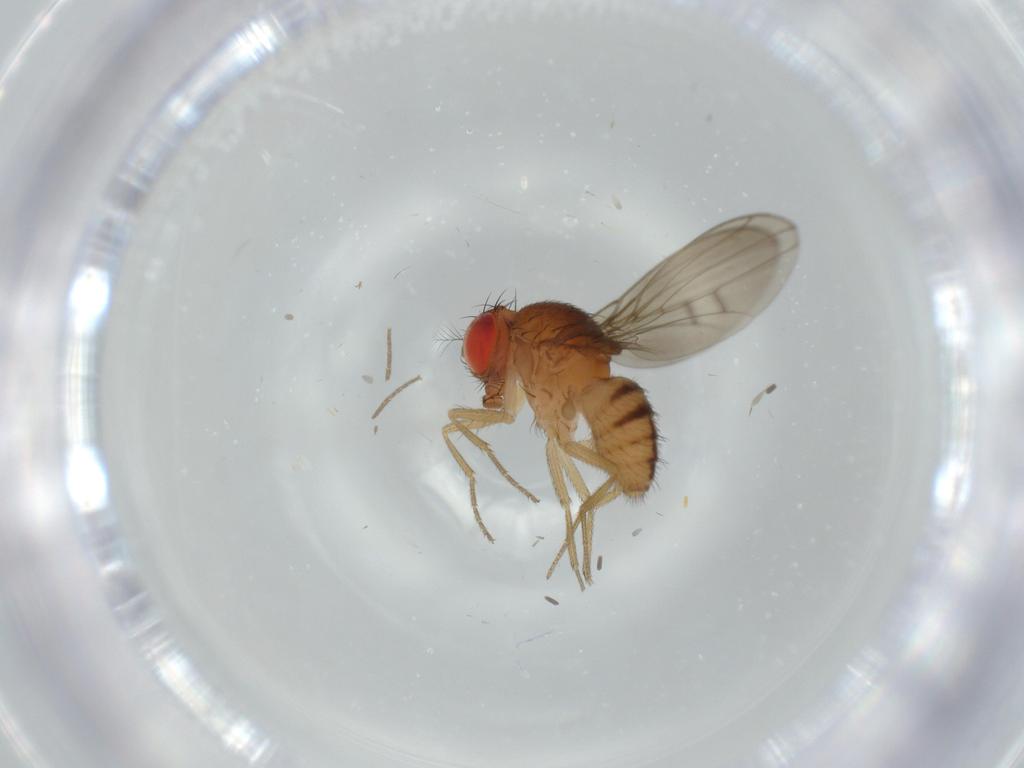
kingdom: Animalia
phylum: Arthropoda
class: Insecta
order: Diptera
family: Drosophilidae
